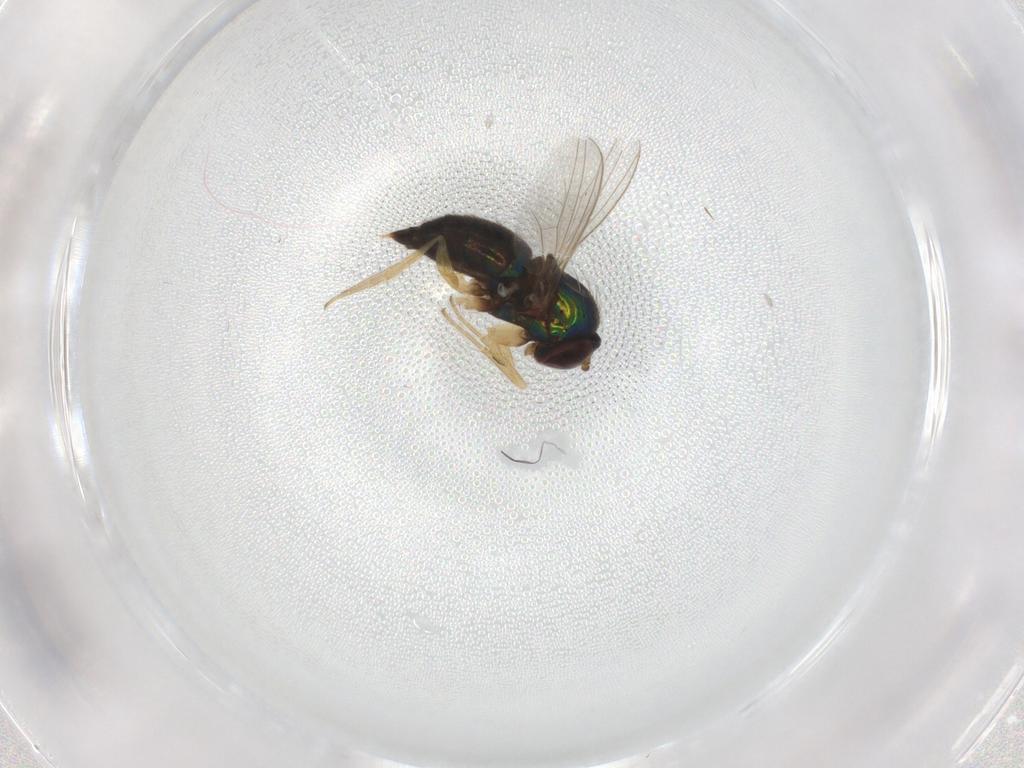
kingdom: Animalia
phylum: Arthropoda
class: Insecta
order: Diptera
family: Dolichopodidae
